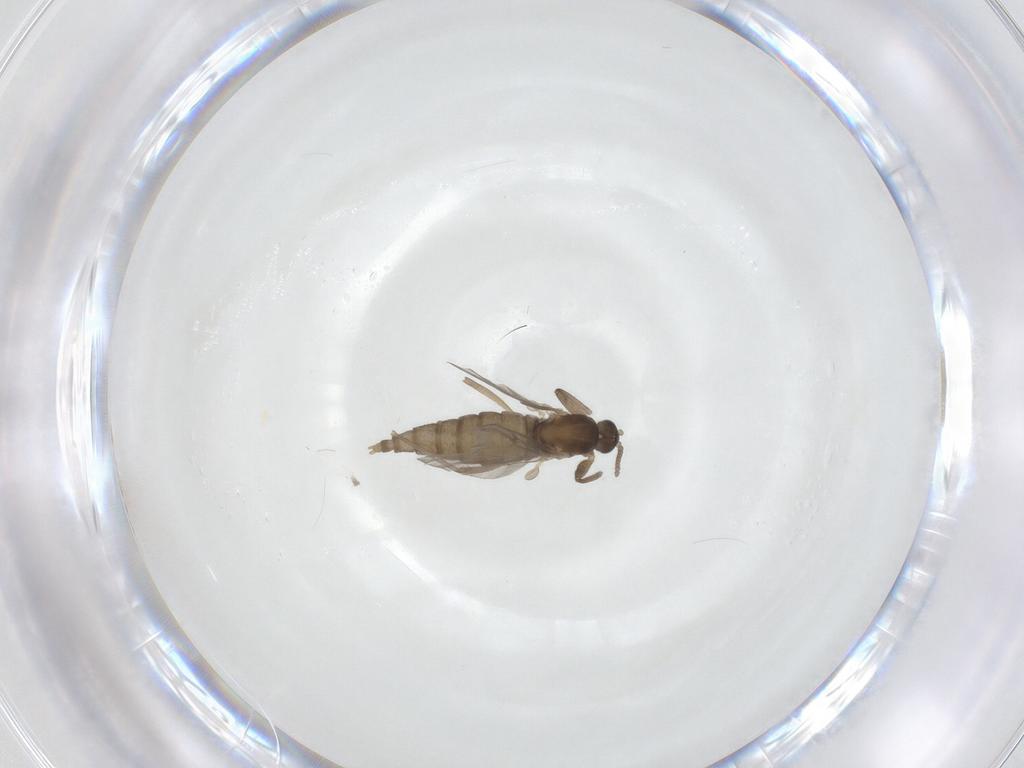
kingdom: Animalia
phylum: Arthropoda
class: Insecta
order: Diptera
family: Cecidomyiidae
